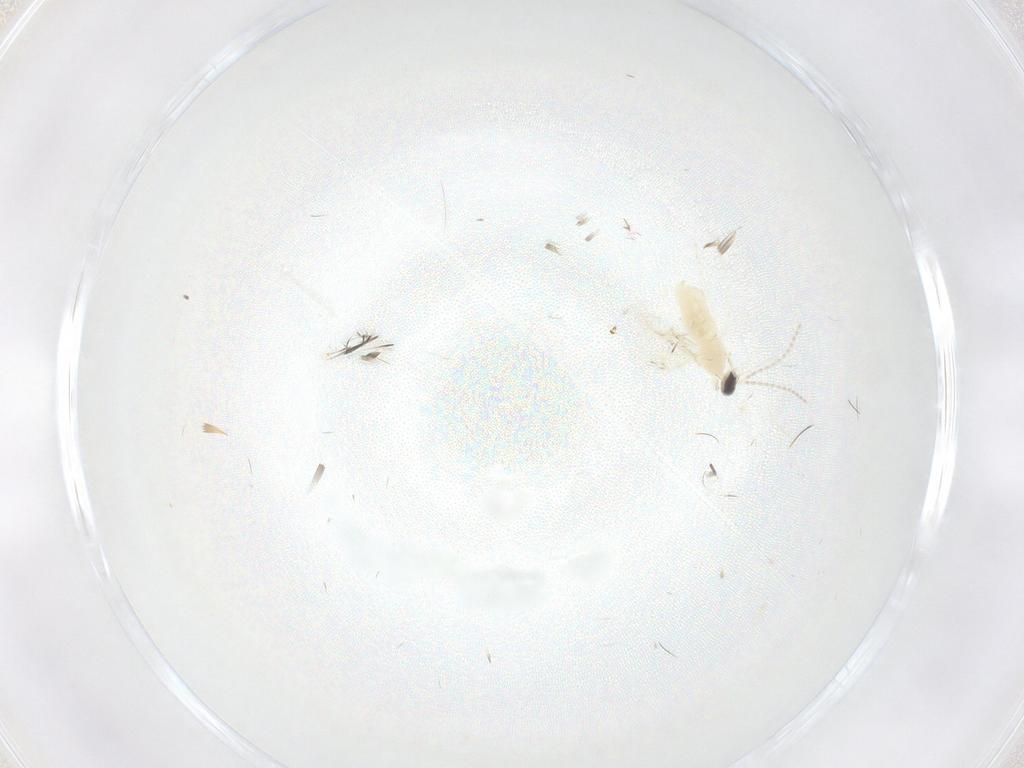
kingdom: Animalia
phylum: Arthropoda
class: Insecta
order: Diptera
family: Cecidomyiidae
